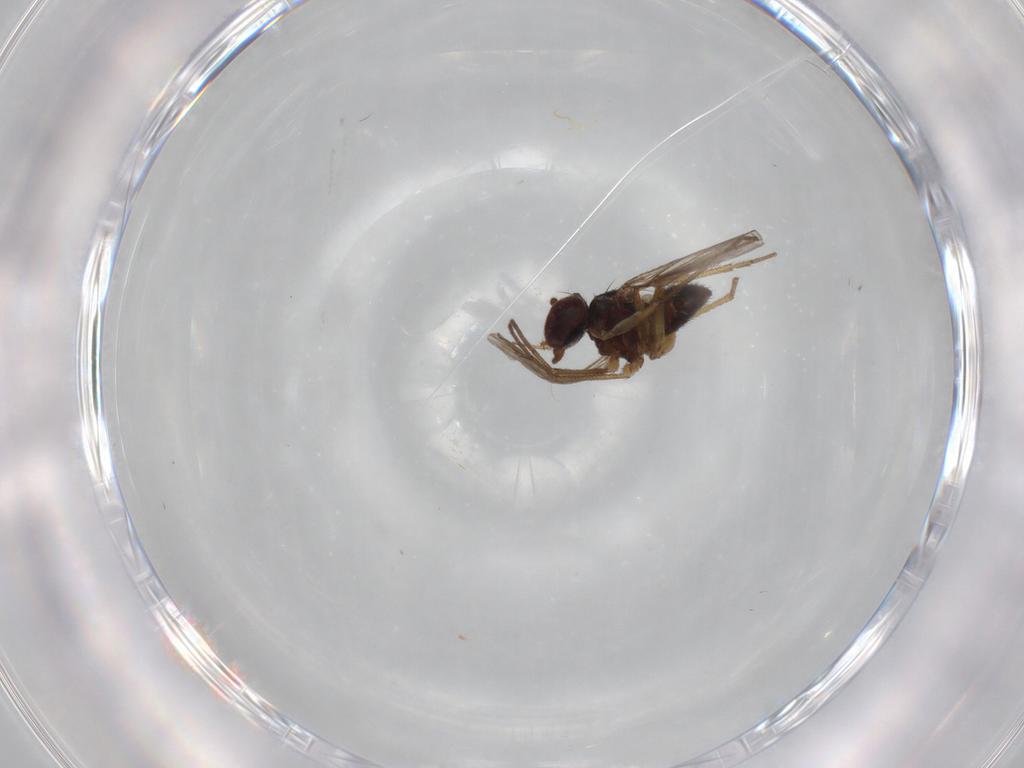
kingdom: Animalia
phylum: Arthropoda
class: Insecta
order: Diptera
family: Dolichopodidae
